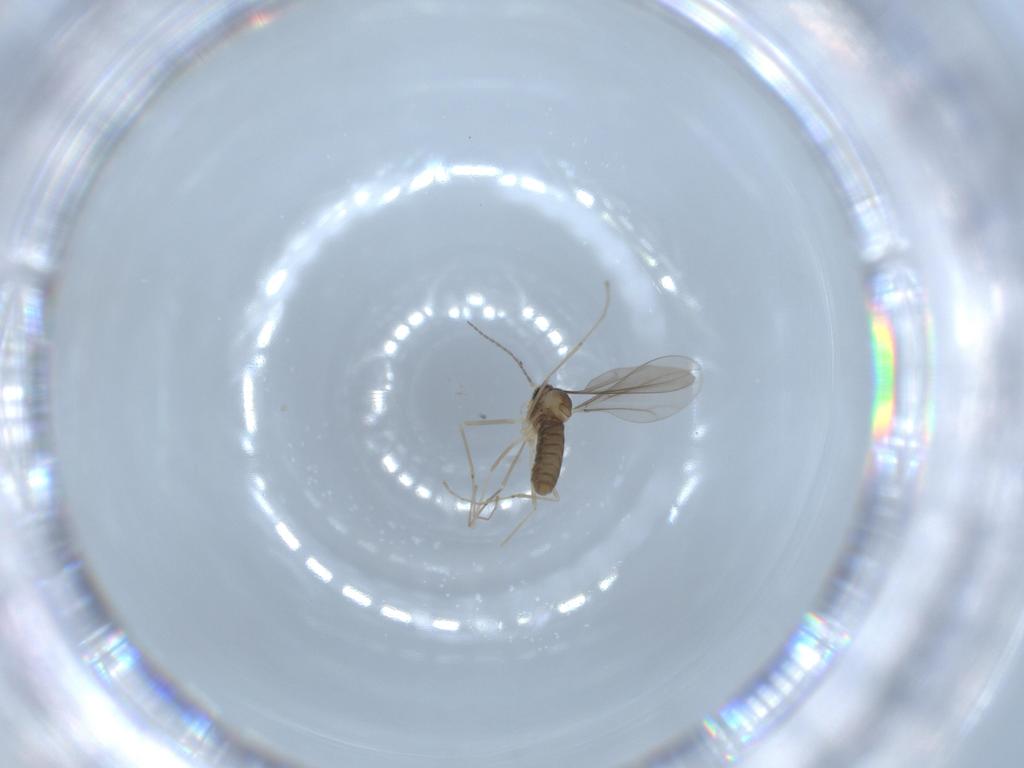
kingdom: Animalia
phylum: Arthropoda
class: Insecta
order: Diptera
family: Cecidomyiidae
